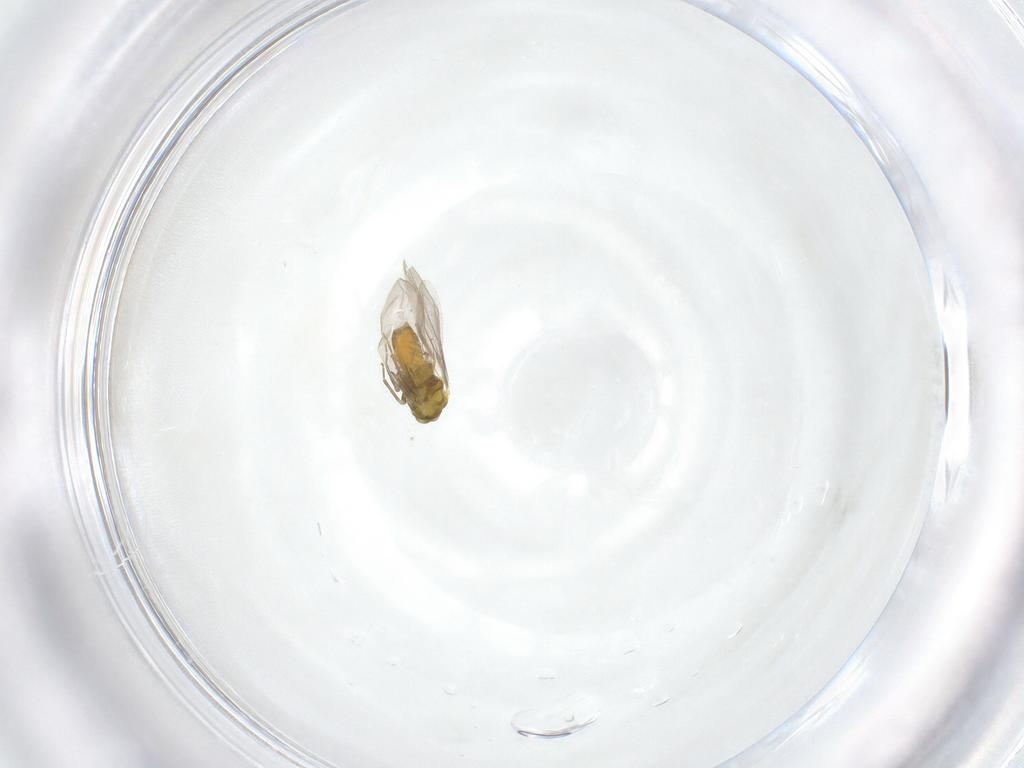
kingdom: Animalia
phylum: Arthropoda
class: Insecta
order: Hemiptera
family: Aleyrodidae
